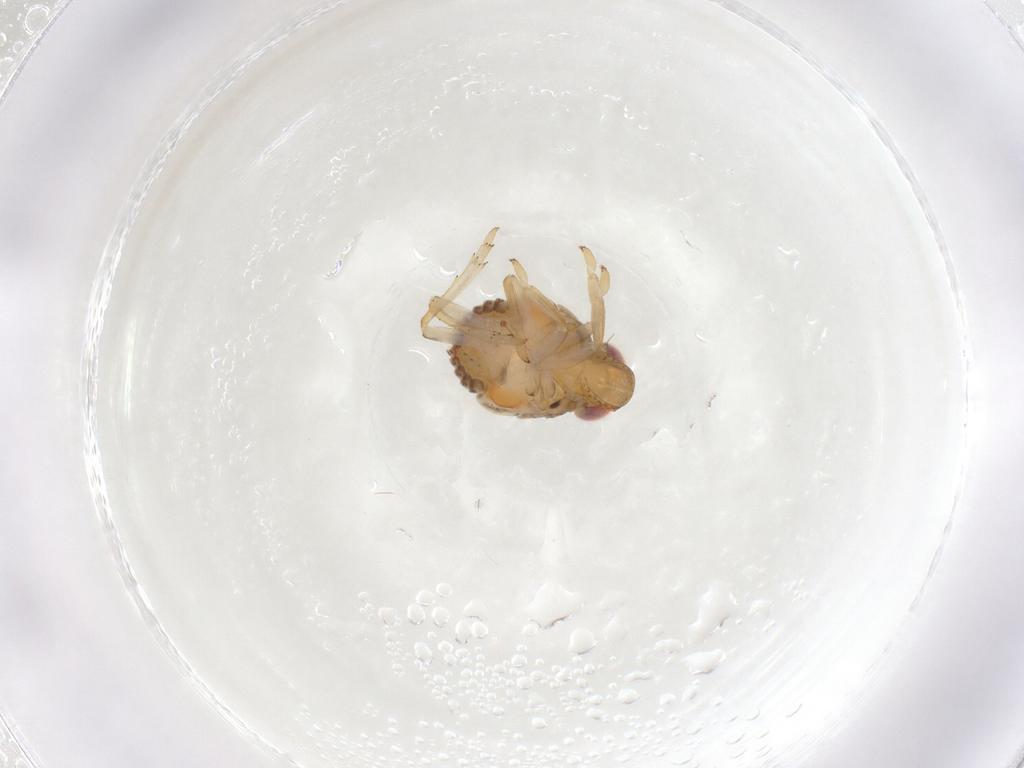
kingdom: Animalia
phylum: Arthropoda
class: Insecta
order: Hemiptera
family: Issidae
